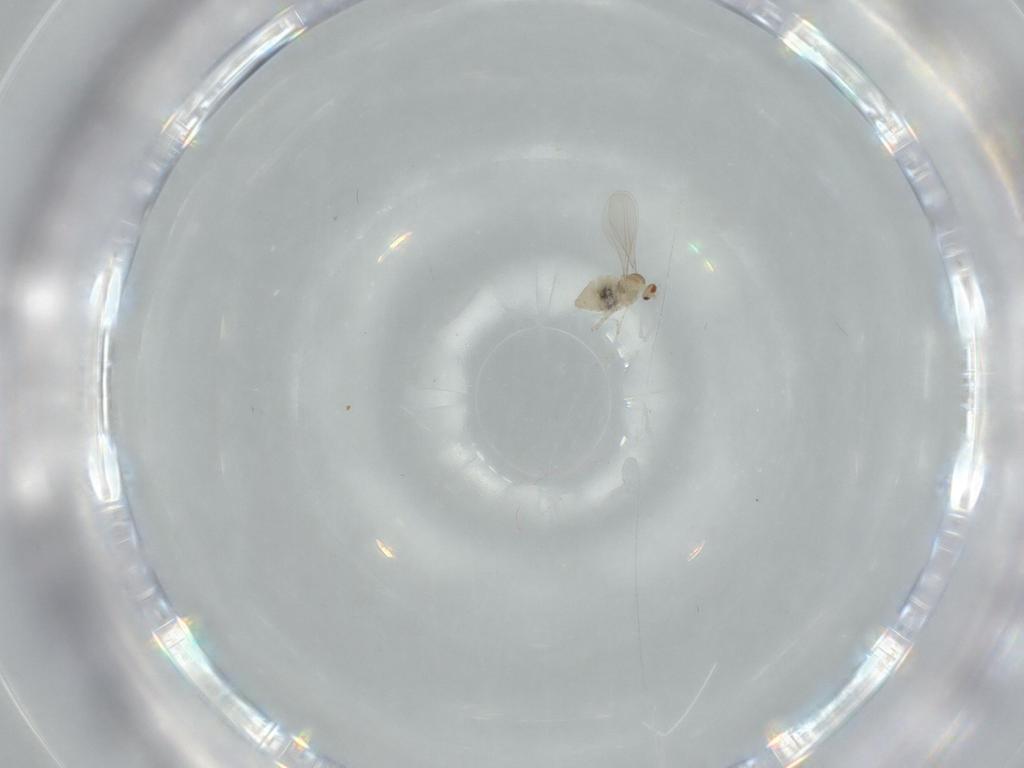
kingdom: Animalia
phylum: Arthropoda
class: Insecta
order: Diptera
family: Cecidomyiidae
